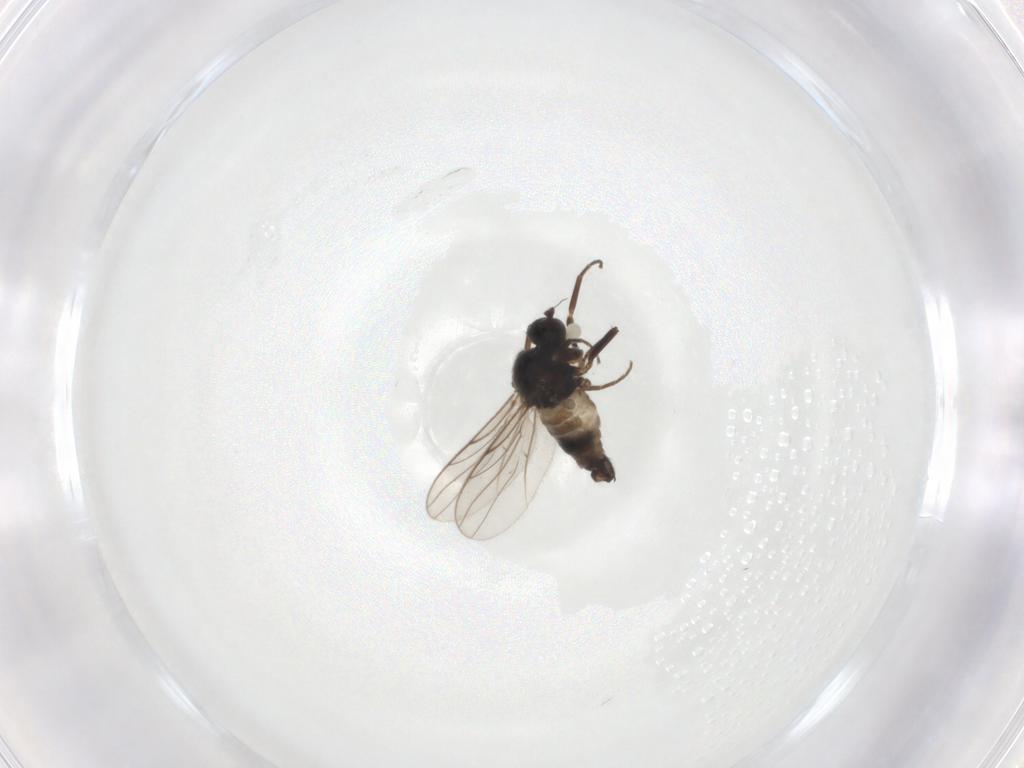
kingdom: Animalia
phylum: Arthropoda
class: Insecta
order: Diptera
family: Hybotidae
